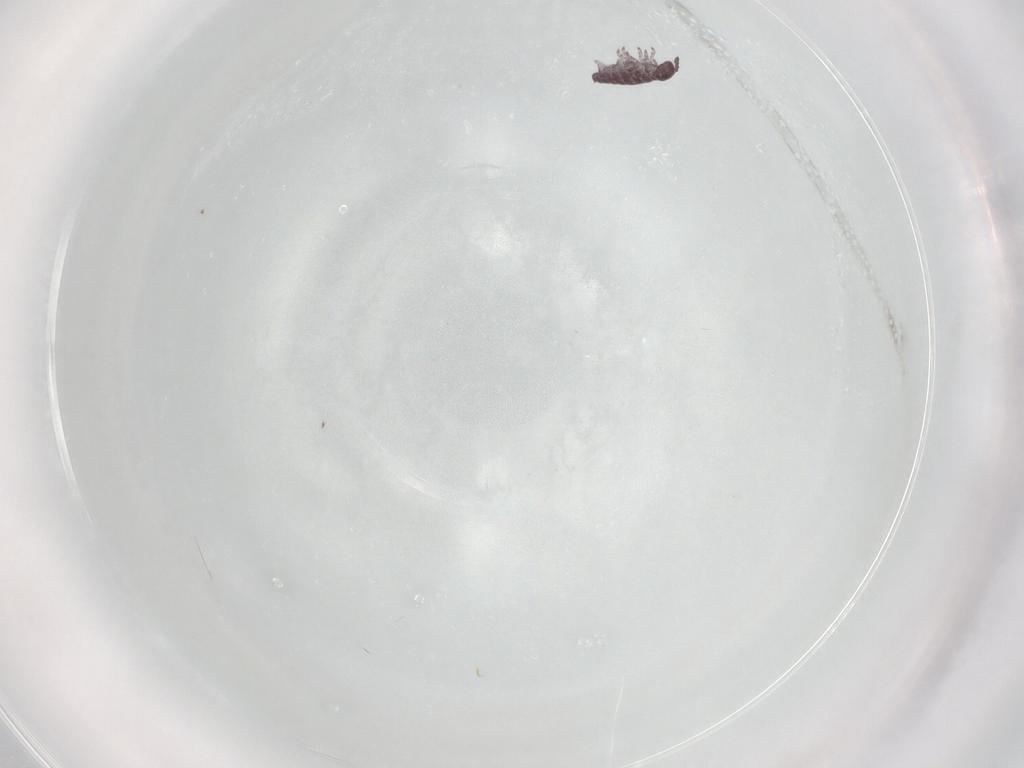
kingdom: Animalia
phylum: Arthropoda
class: Collembola
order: Poduromorpha
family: Hypogastruridae
